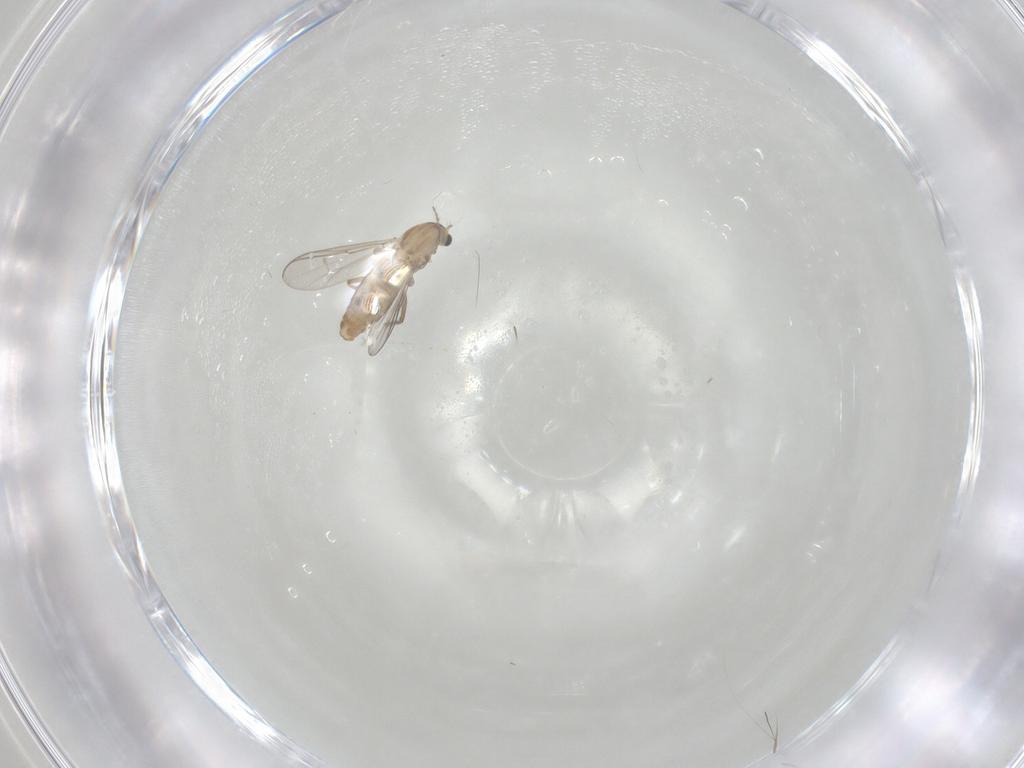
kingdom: Animalia
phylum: Arthropoda
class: Insecta
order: Diptera
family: Chironomidae
